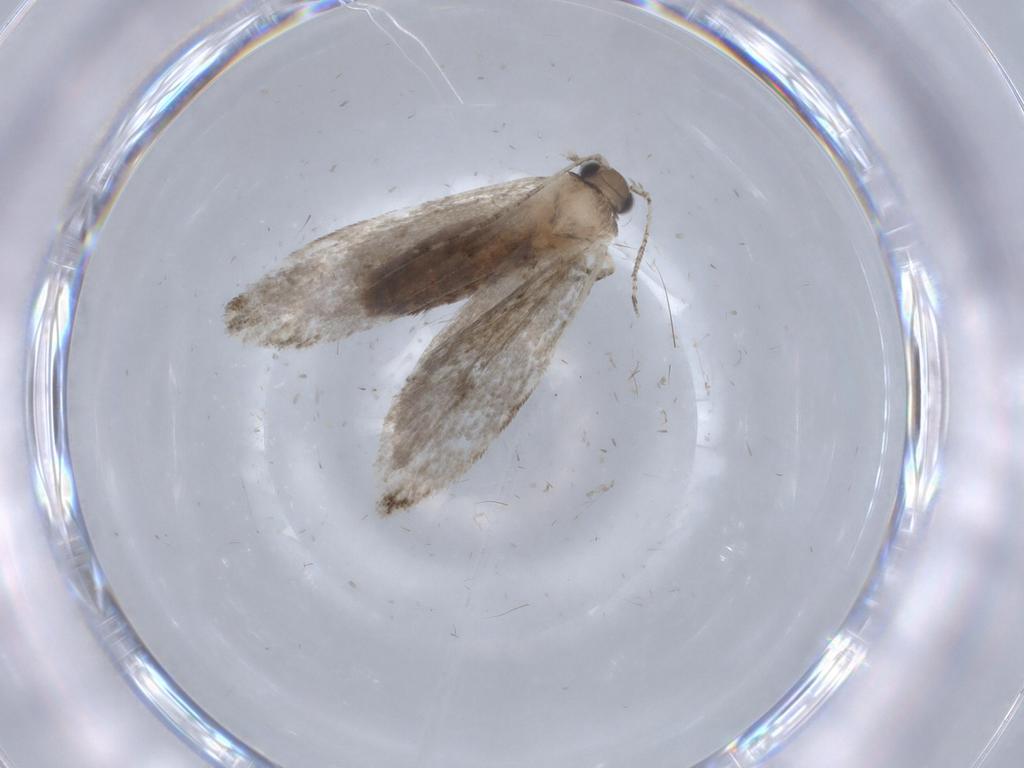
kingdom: Animalia
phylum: Arthropoda
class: Insecta
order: Lepidoptera
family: Tineidae
